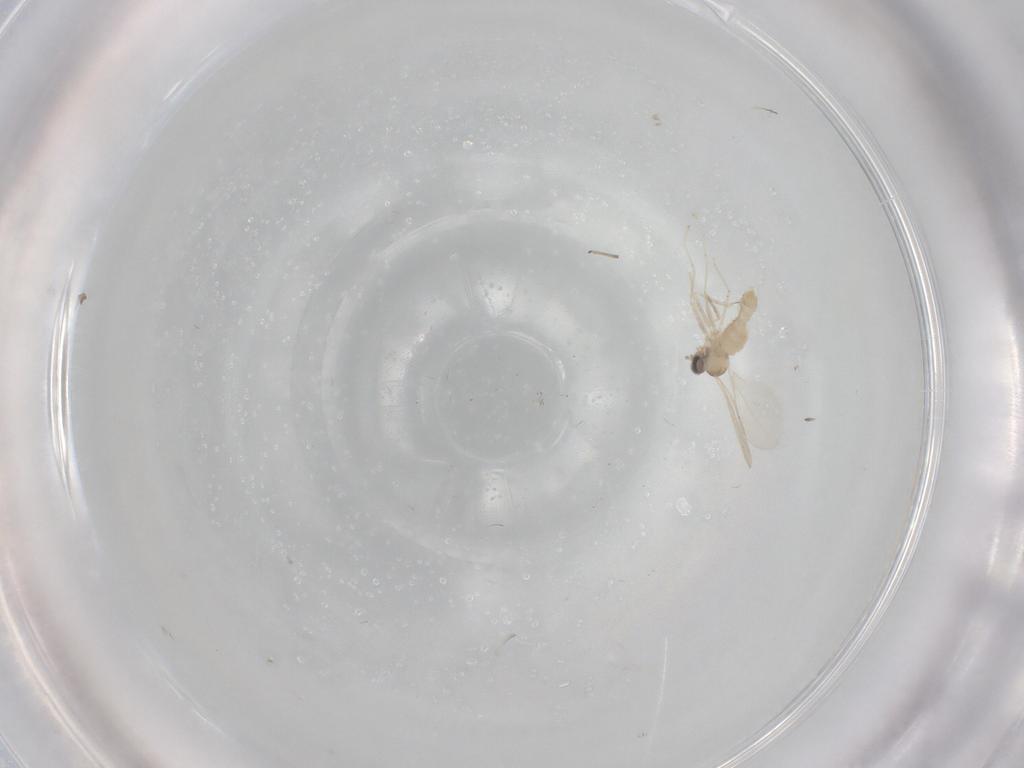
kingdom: Animalia
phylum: Arthropoda
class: Insecta
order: Diptera
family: Cecidomyiidae
